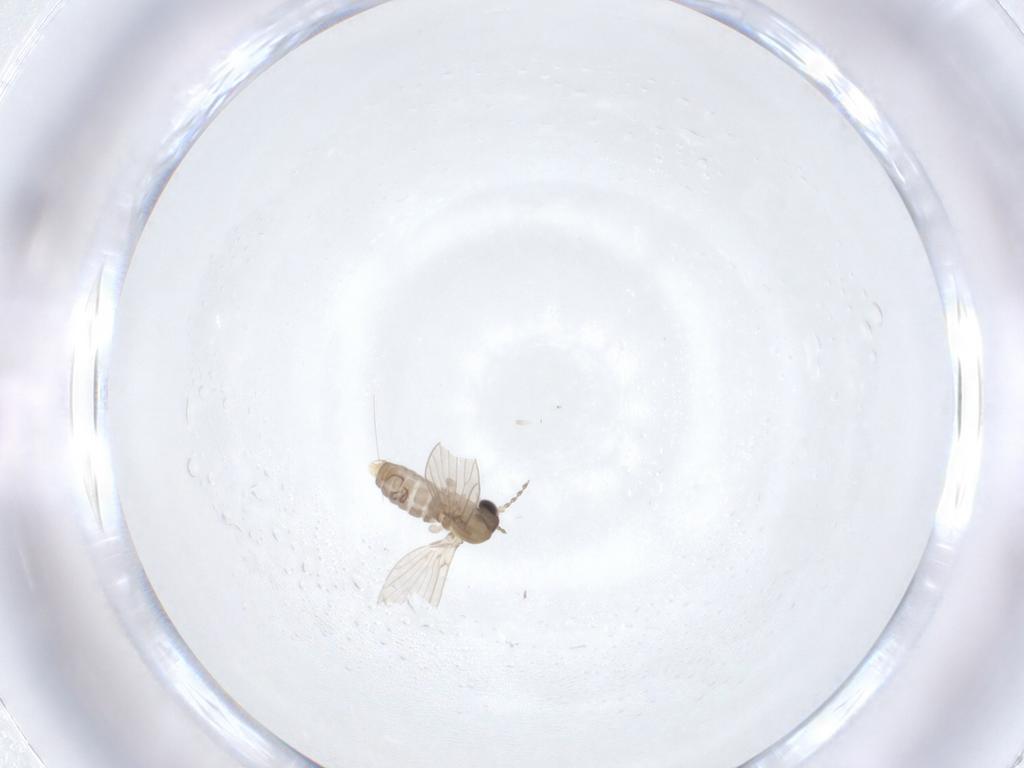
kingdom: Animalia
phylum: Arthropoda
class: Insecta
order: Diptera
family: Psychodidae
